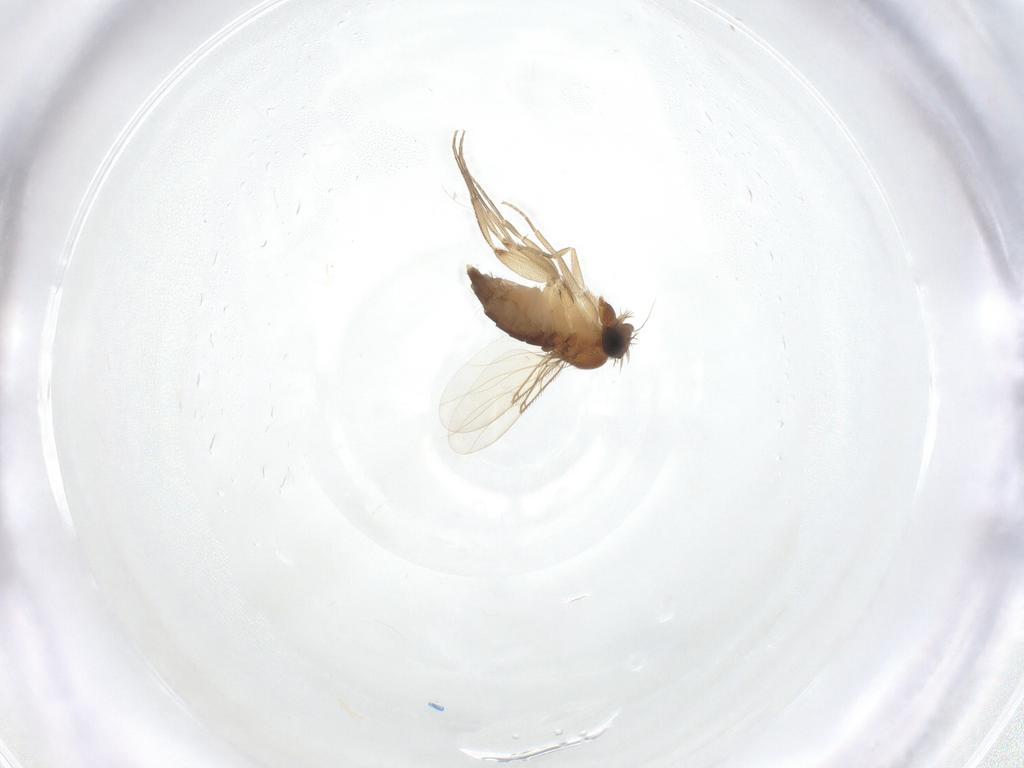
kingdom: Animalia
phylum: Arthropoda
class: Insecta
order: Diptera
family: Phoridae
